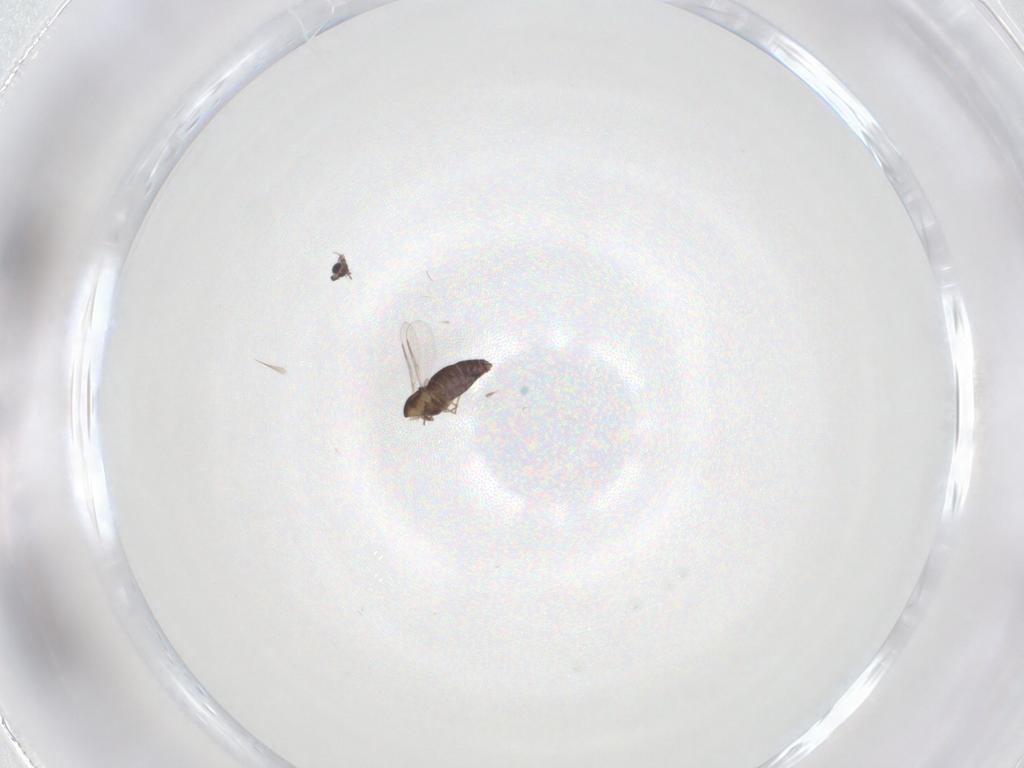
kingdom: Animalia
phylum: Arthropoda
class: Insecta
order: Diptera
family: Chironomidae
